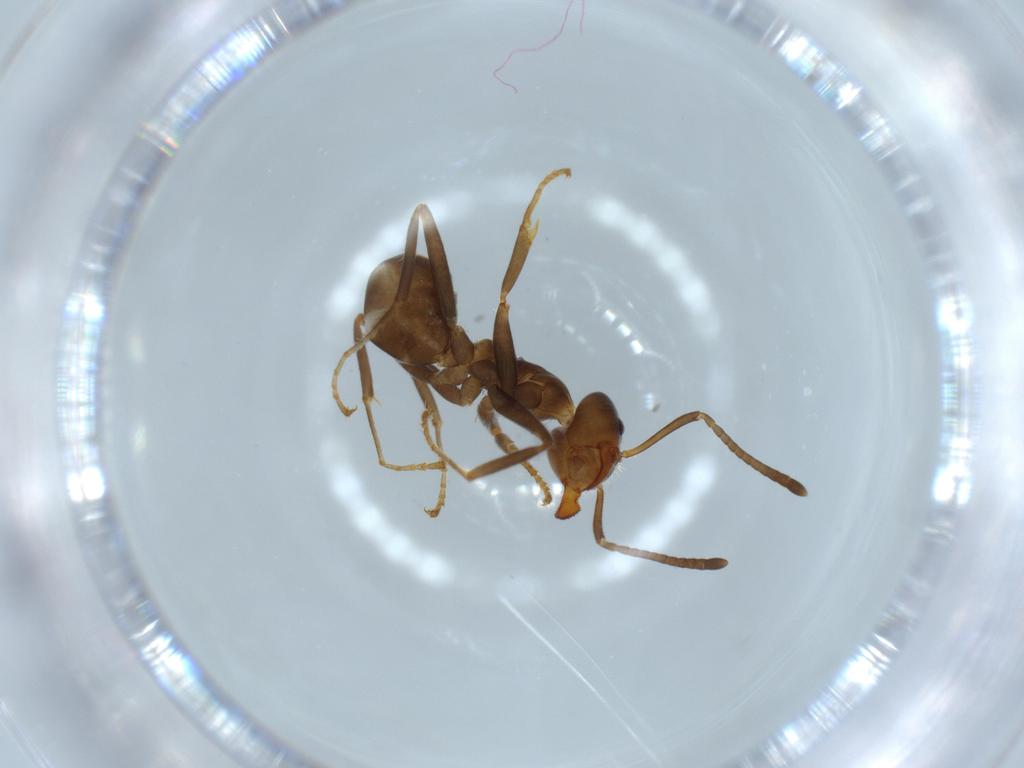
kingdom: Animalia
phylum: Arthropoda
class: Insecta
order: Hymenoptera
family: Formicidae
